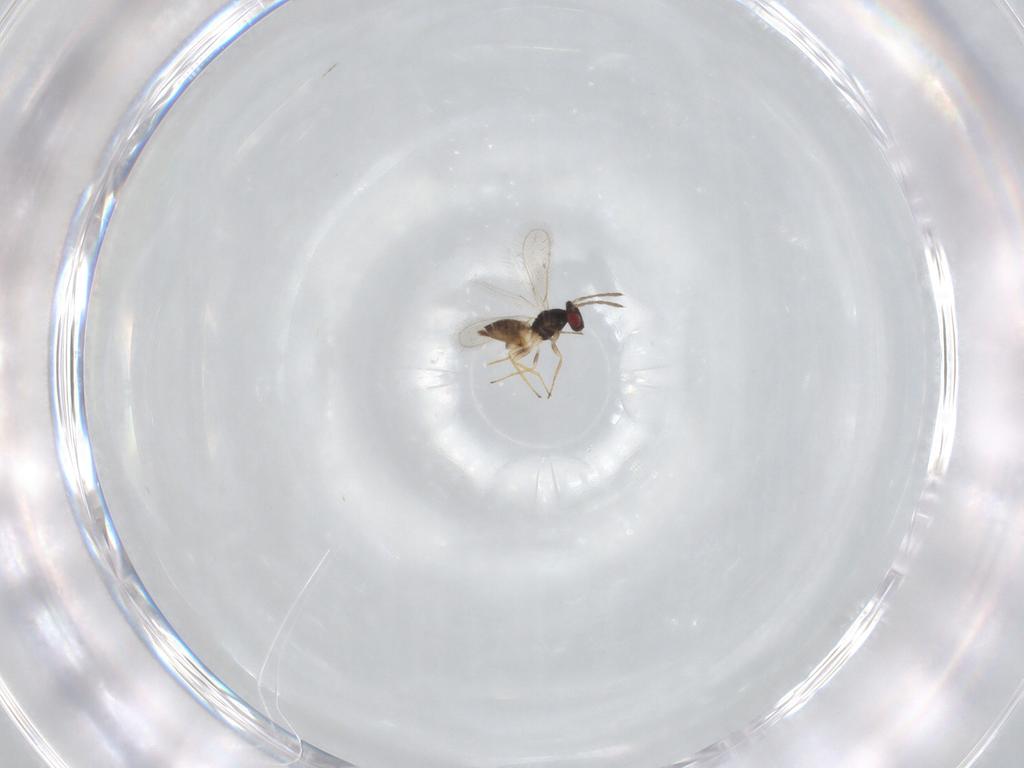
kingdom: Animalia
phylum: Arthropoda
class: Insecta
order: Hymenoptera
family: Eulophidae
